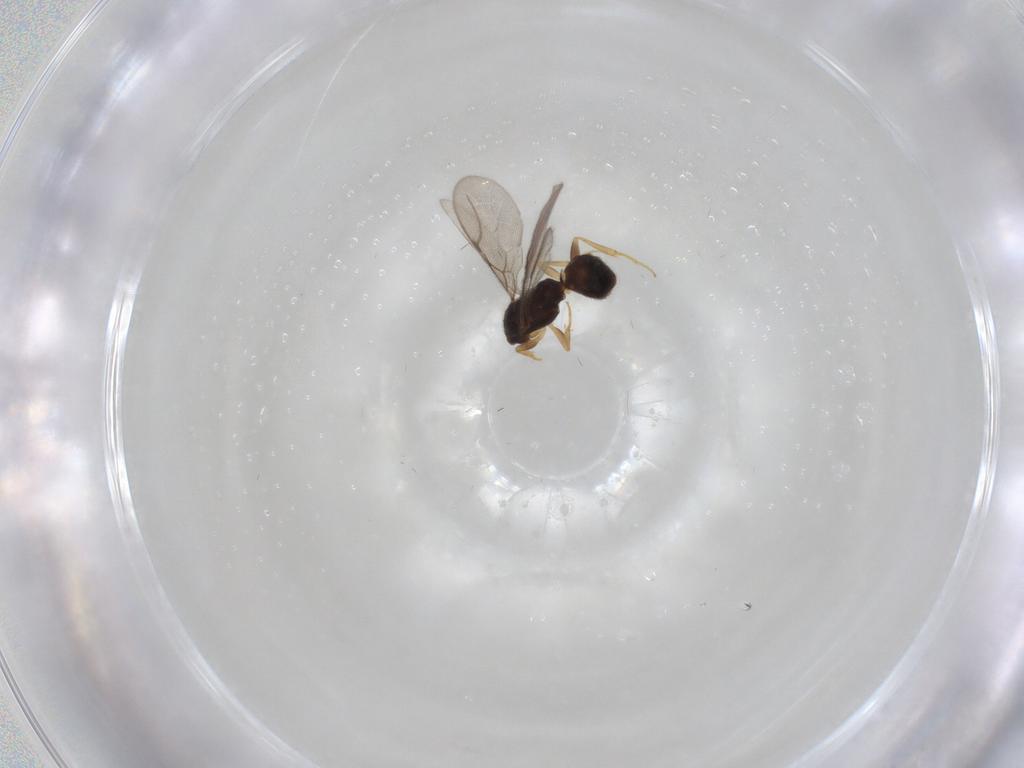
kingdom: Animalia
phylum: Arthropoda
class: Insecta
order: Hymenoptera
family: Bethylidae
